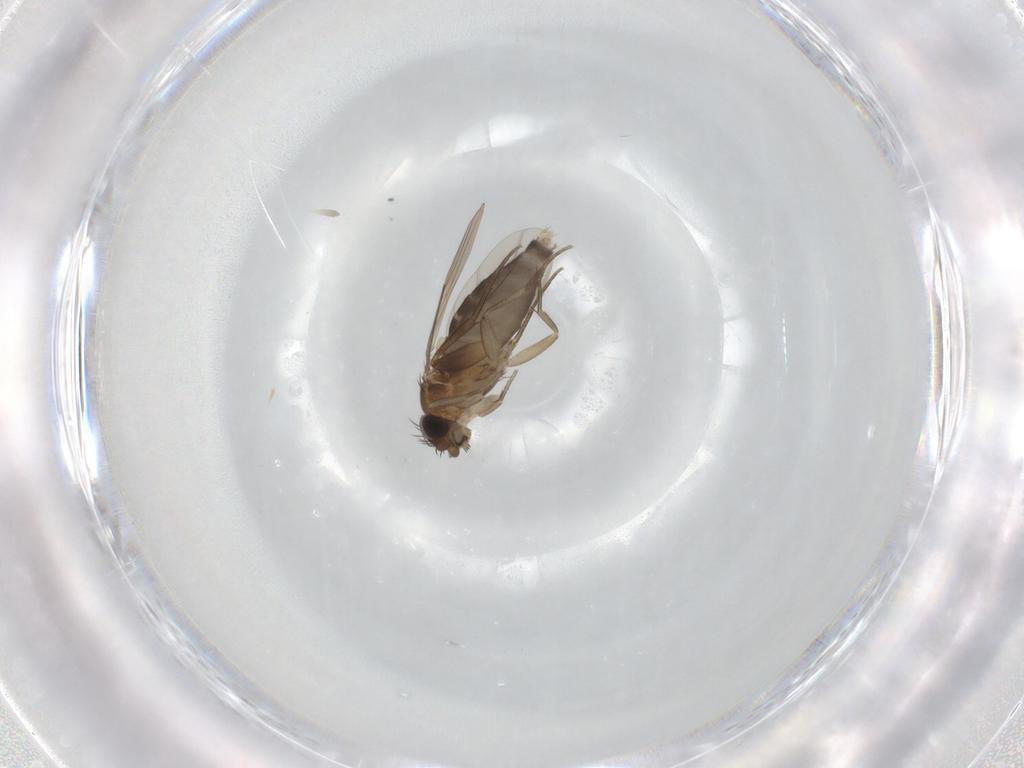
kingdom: Animalia
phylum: Arthropoda
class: Insecta
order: Diptera
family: Phoridae
